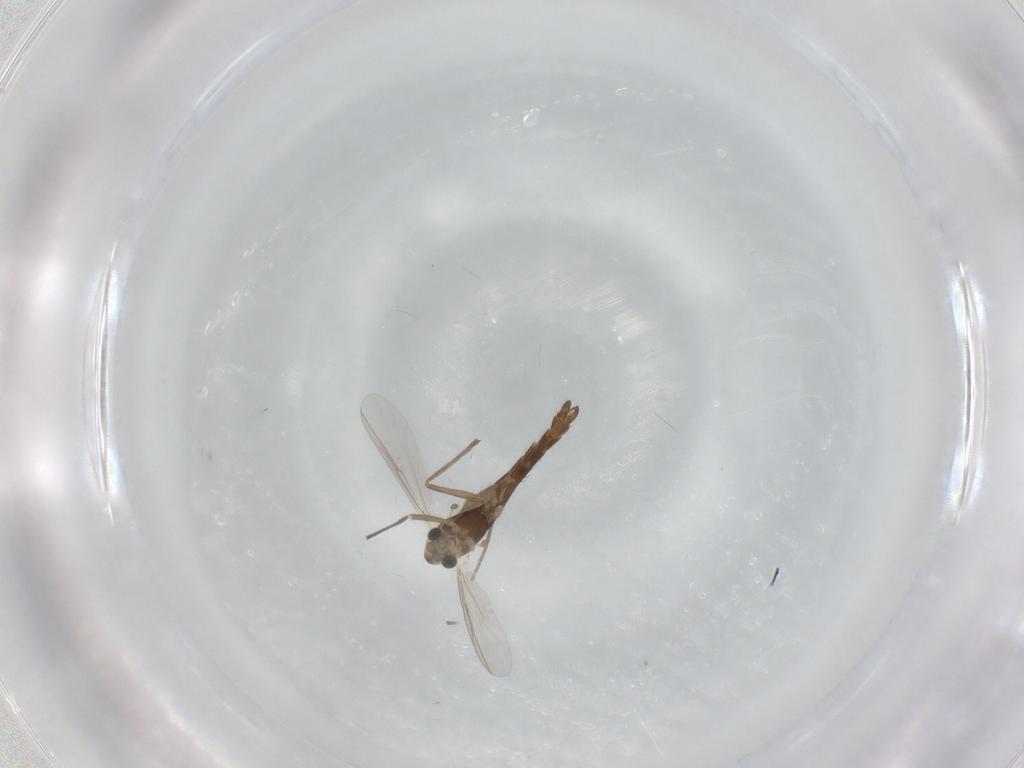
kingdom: Animalia
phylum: Arthropoda
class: Insecta
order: Diptera
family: Chironomidae
